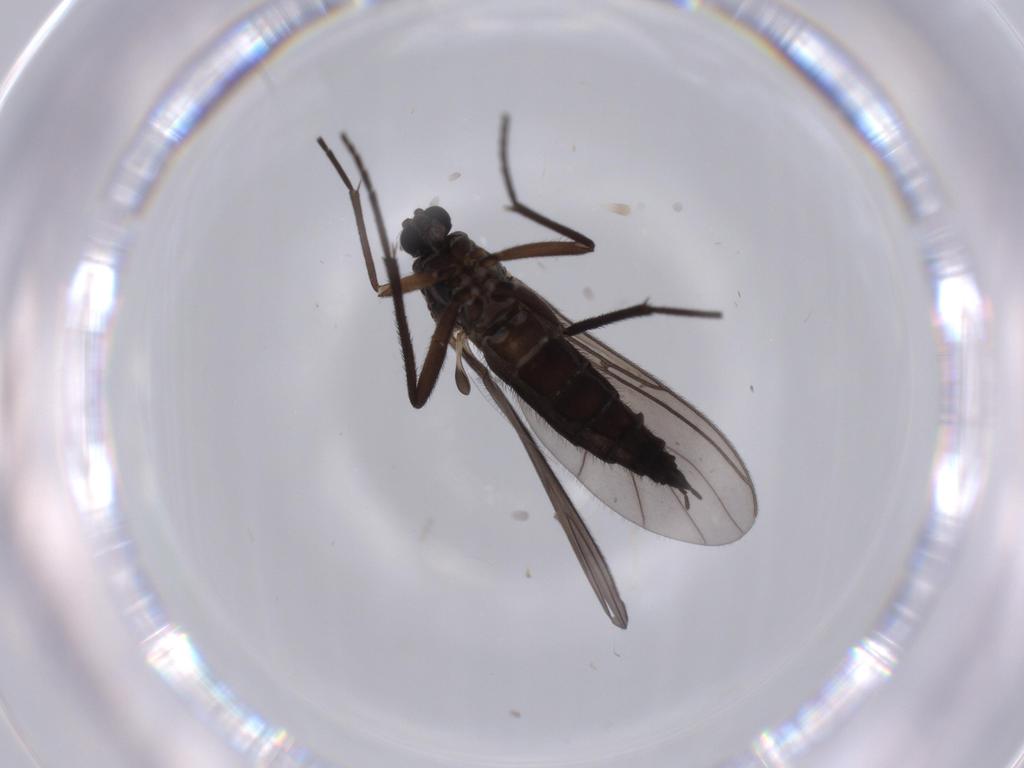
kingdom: Animalia
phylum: Arthropoda
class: Insecta
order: Diptera
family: Sciaridae
